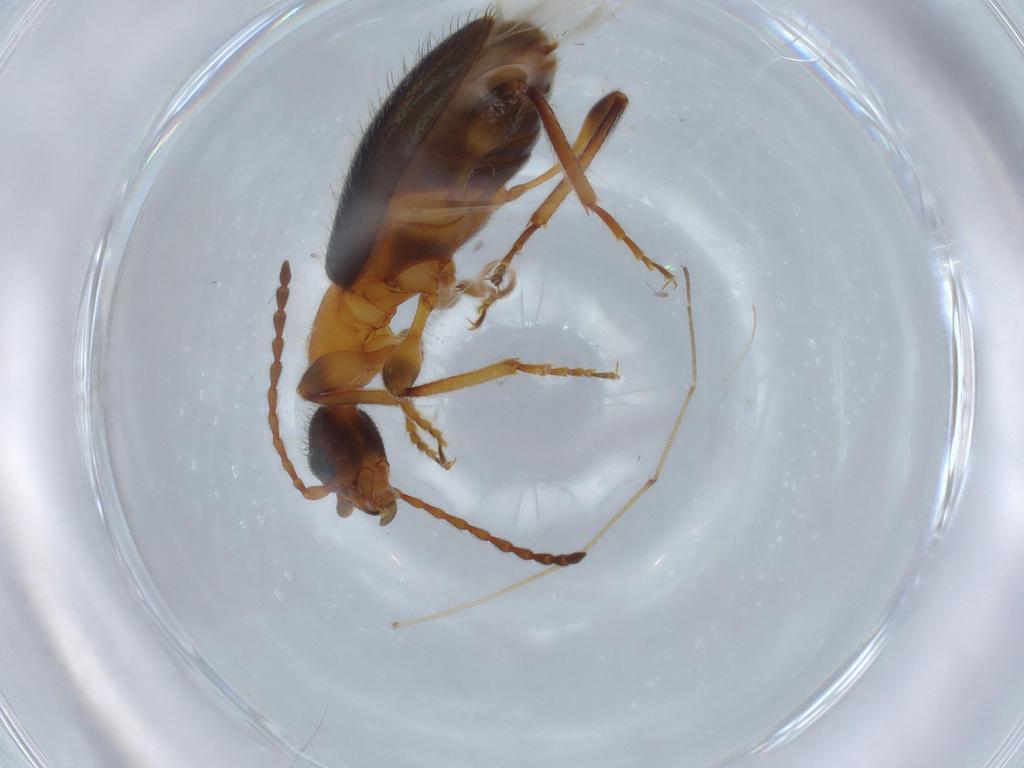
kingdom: Animalia
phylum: Arthropoda
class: Insecta
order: Coleoptera
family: Anthicidae
